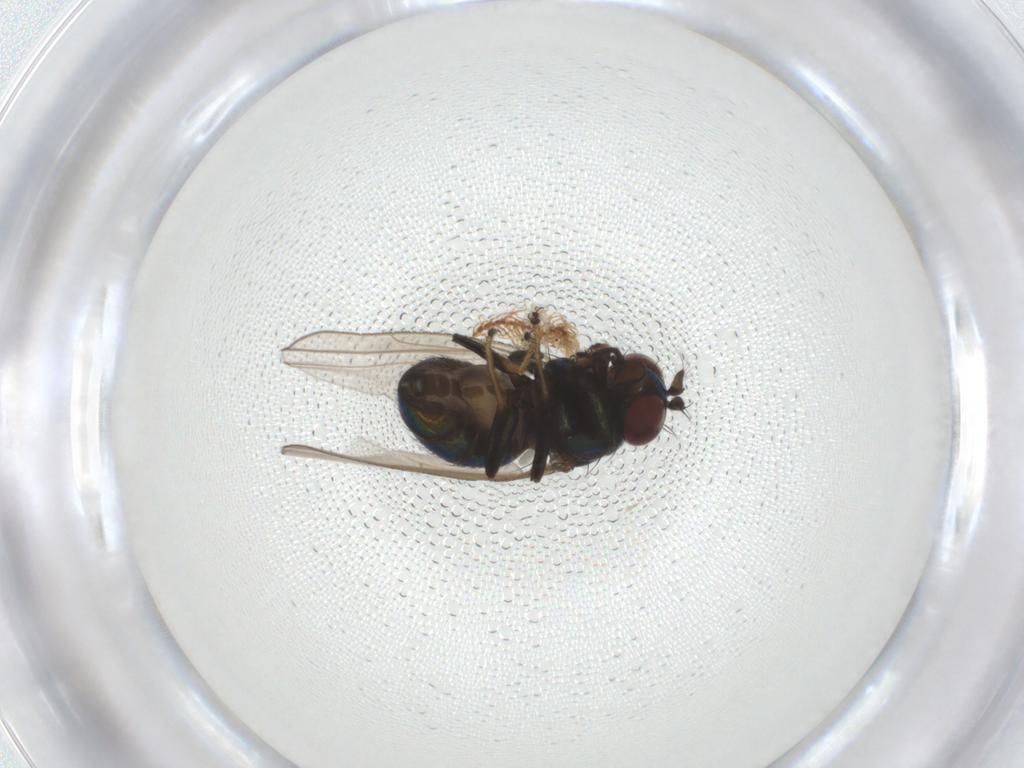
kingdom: Animalia
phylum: Arthropoda
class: Insecta
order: Diptera
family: Ephydridae
